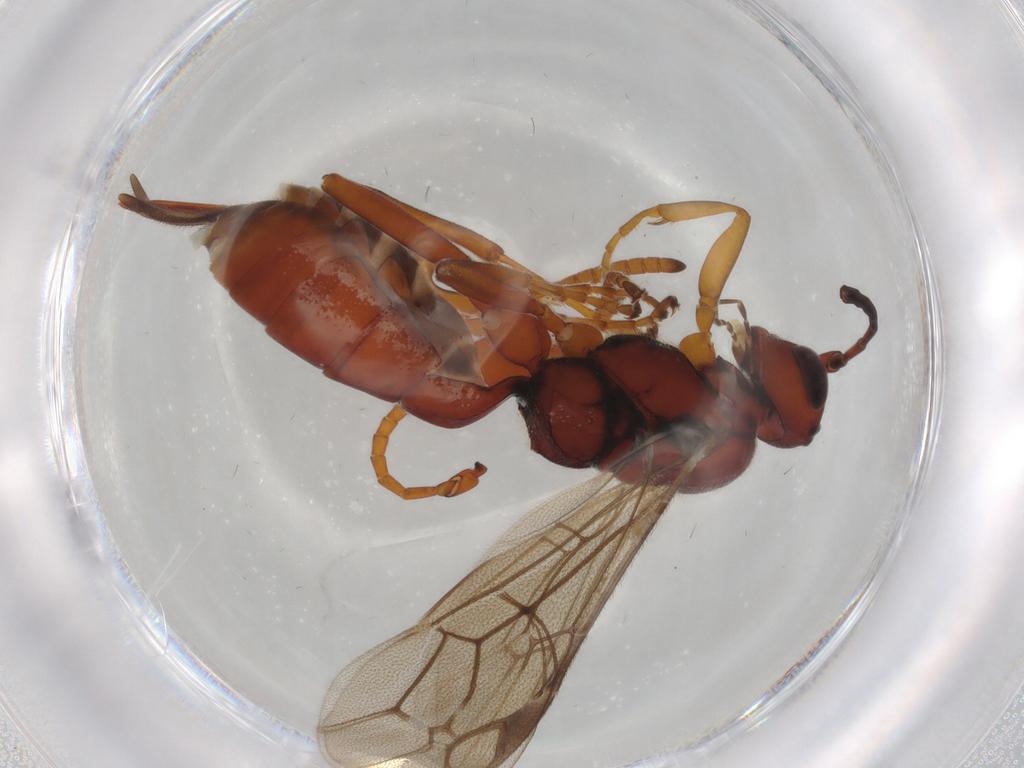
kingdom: Animalia
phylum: Arthropoda
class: Insecta
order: Hymenoptera
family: Ichneumonidae
